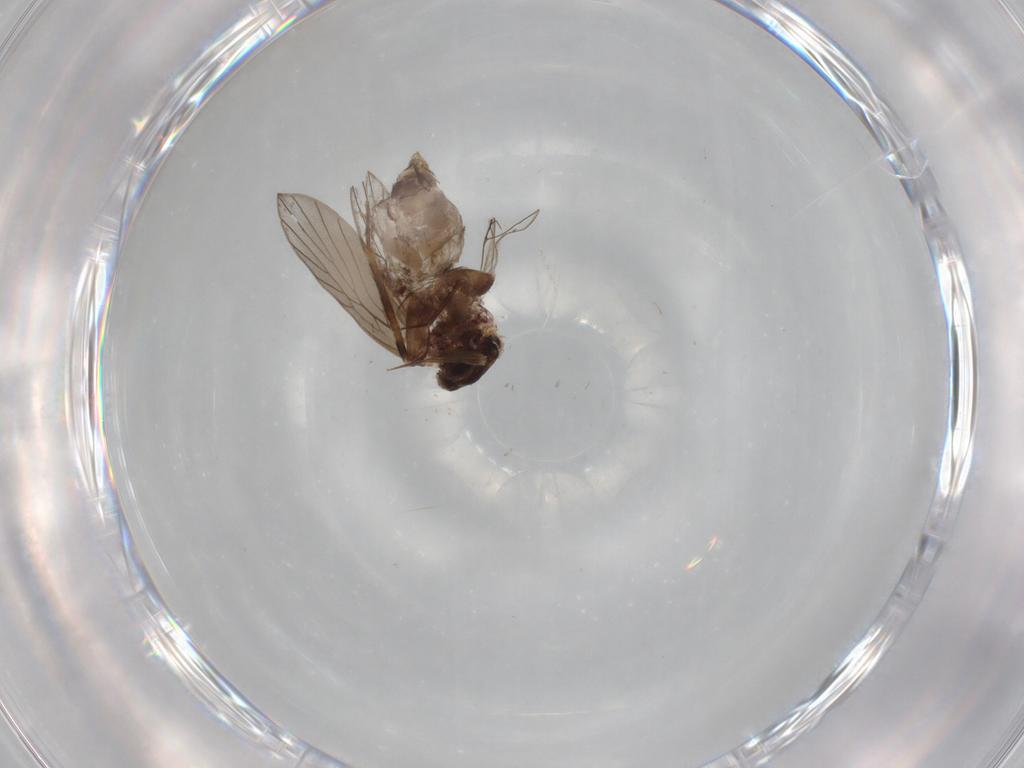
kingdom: Animalia
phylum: Arthropoda
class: Insecta
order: Psocodea
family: Lepidopsocidae
